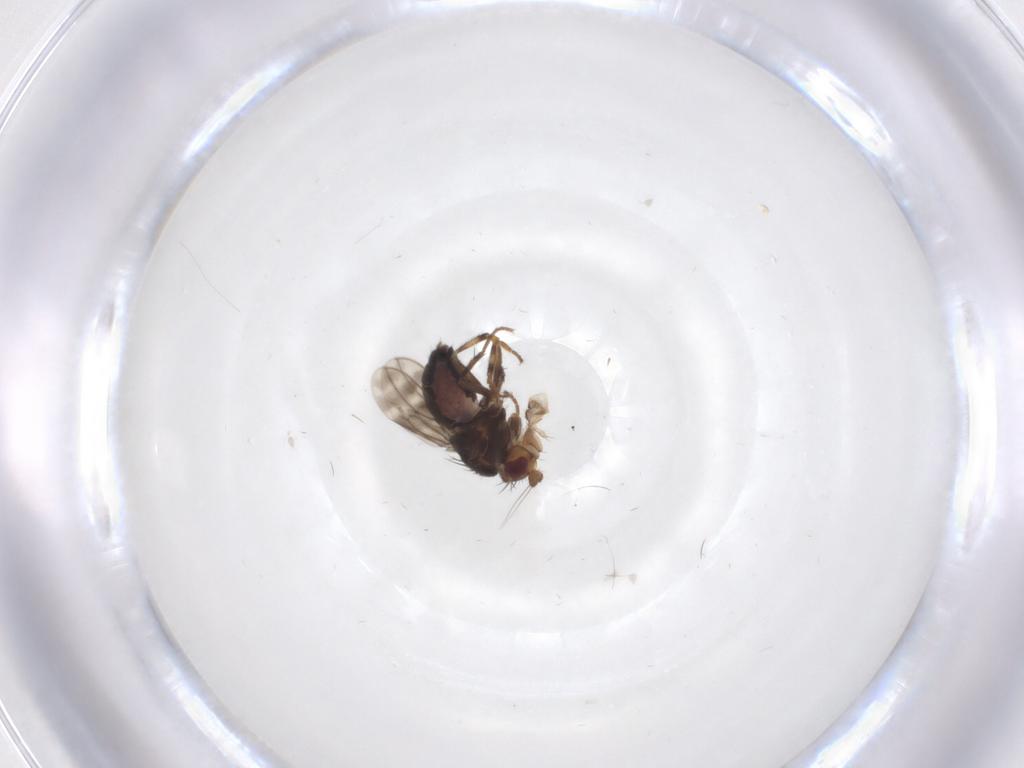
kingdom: Animalia
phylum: Arthropoda
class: Insecta
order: Diptera
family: Sphaeroceridae
